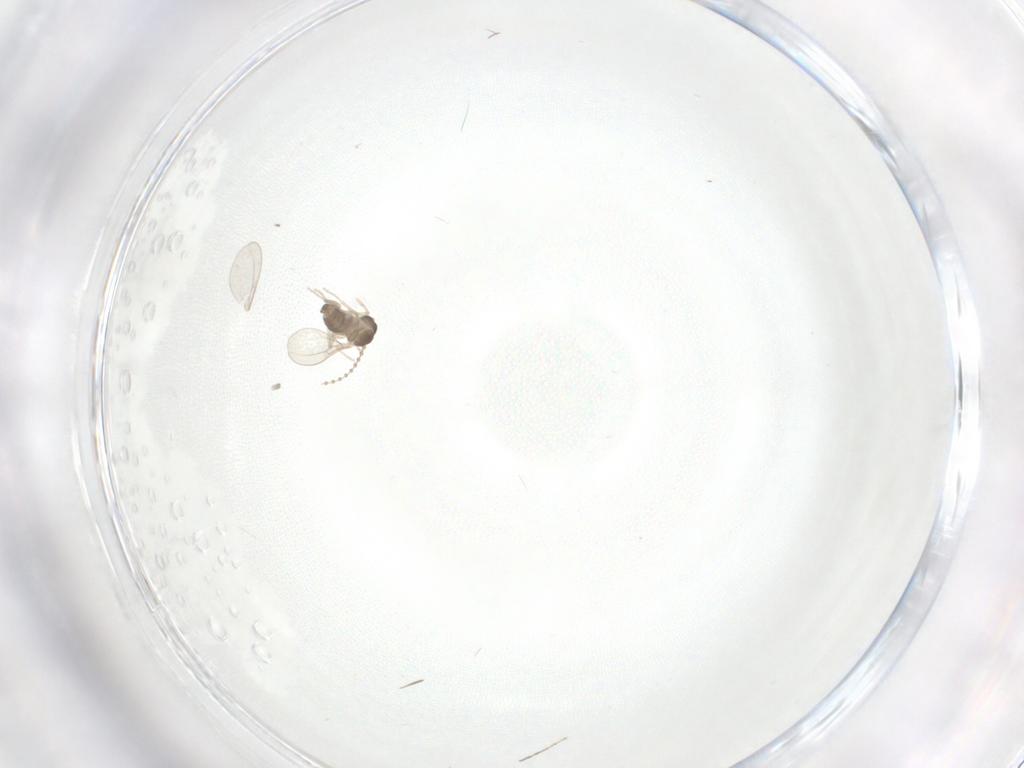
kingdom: Animalia
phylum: Arthropoda
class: Insecta
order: Diptera
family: Cecidomyiidae
